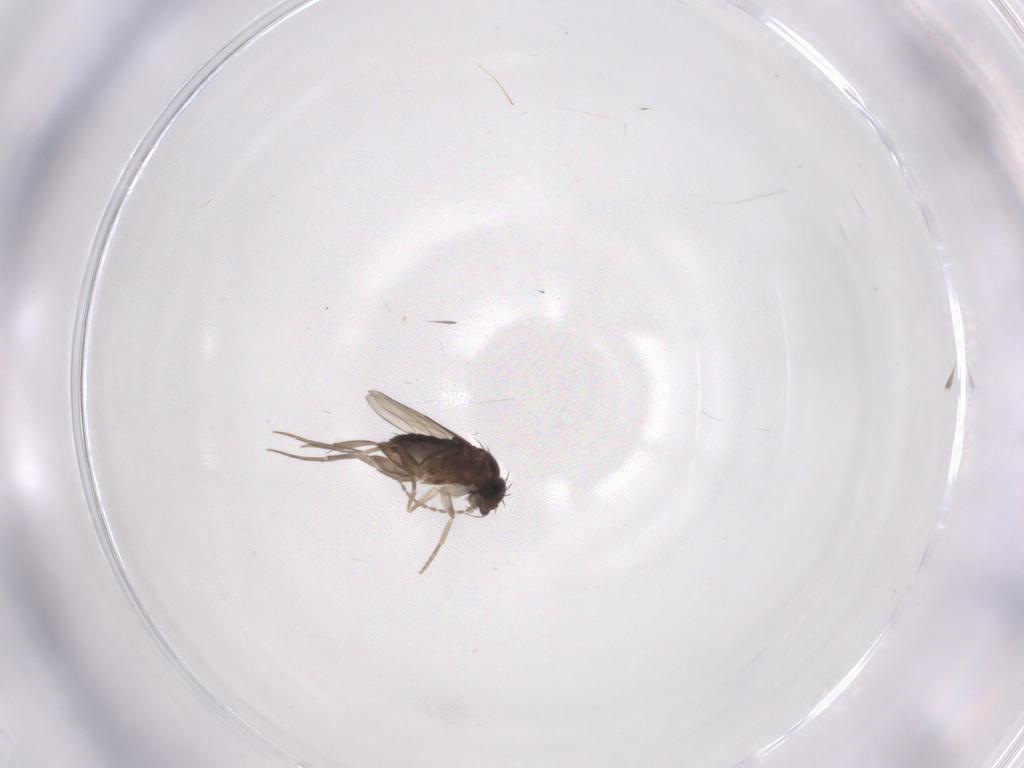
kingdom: Animalia
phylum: Arthropoda
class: Insecta
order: Diptera
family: Phoridae
